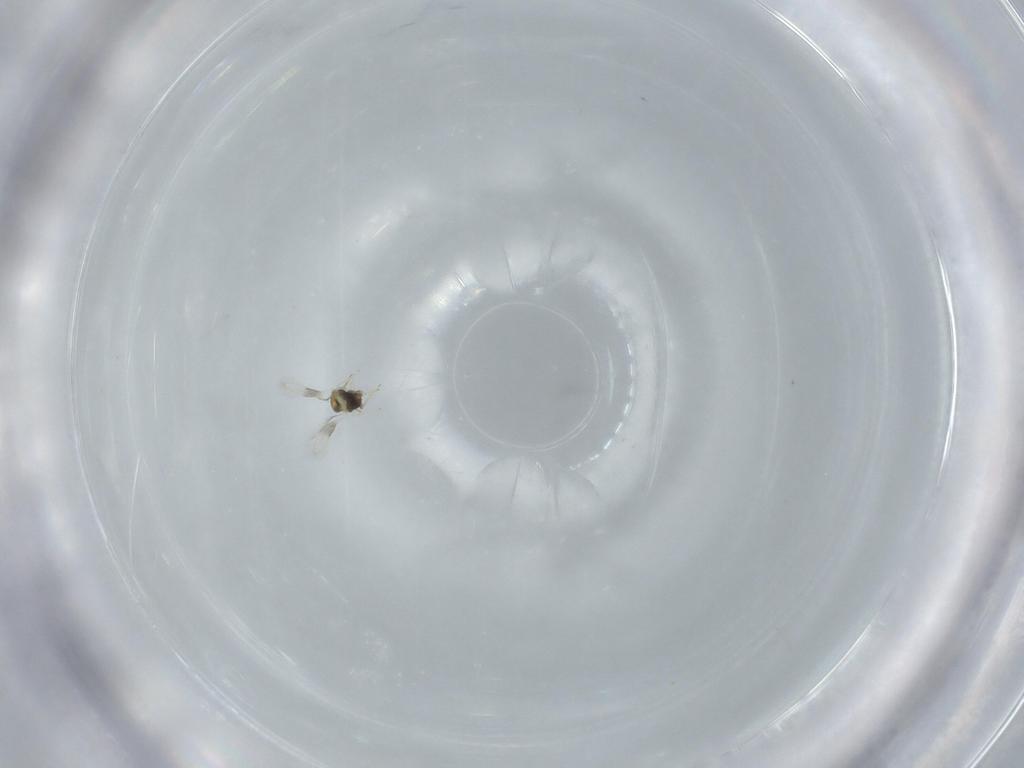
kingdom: Animalia
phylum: Arthropoda
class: Insecta
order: Hymenoptera
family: Aphelinidae
